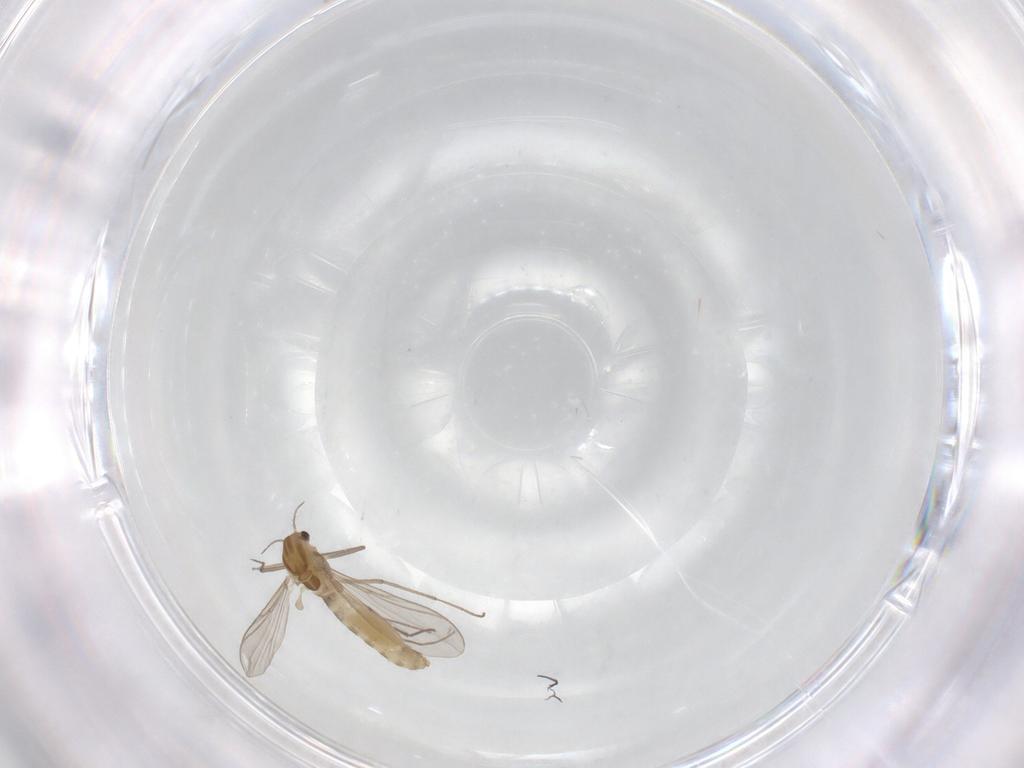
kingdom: Animalia
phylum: Arthropoda
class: Insecta
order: Diptera
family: Chironomidae
